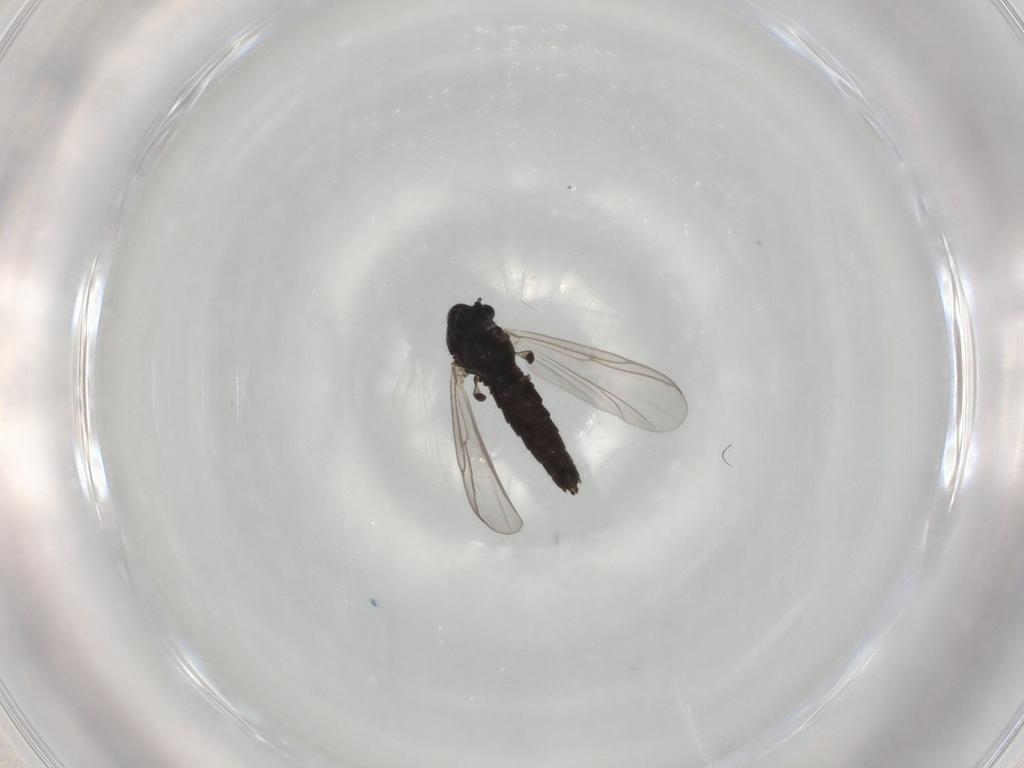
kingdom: Animalia
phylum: Arthropoda
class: Insecta
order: Diptera
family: Chironomidae
